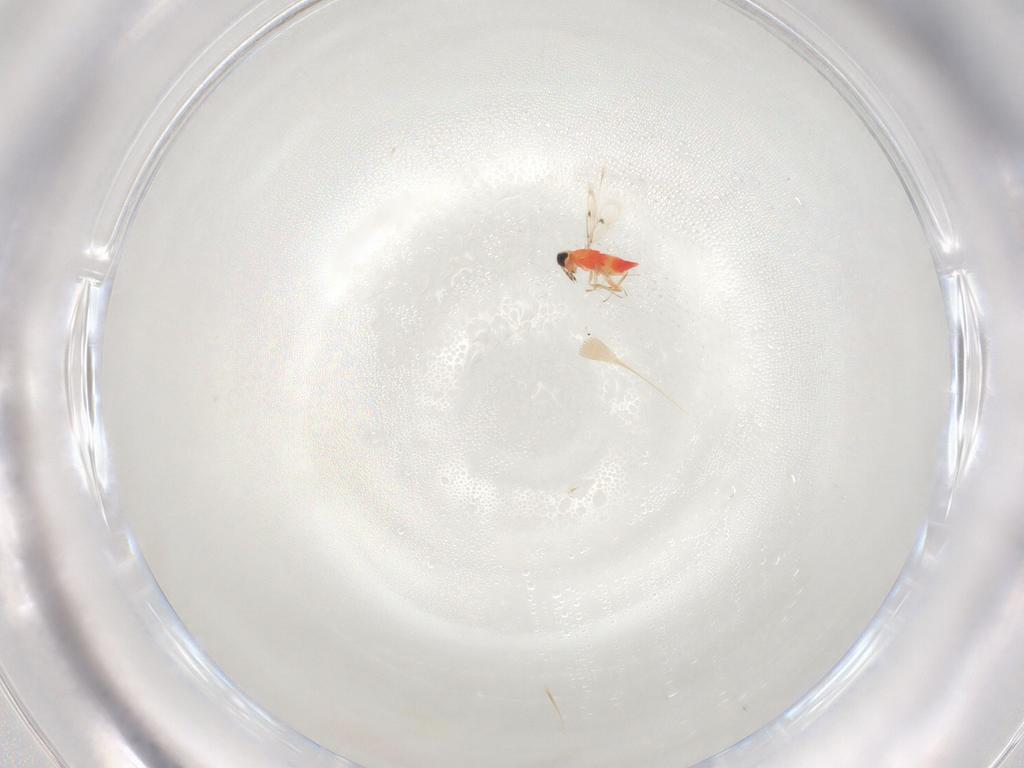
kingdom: Animalia
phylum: Arthropoda
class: Insecta
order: Hymenoptera
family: Trichogrammatidae
